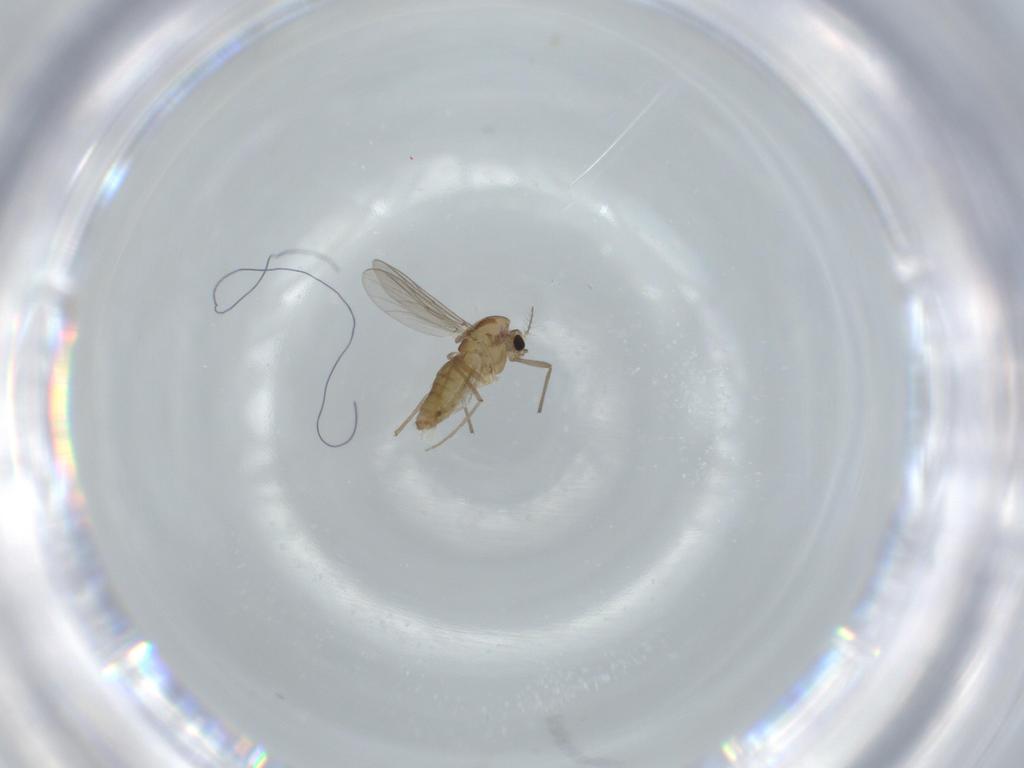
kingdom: Animalia
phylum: Arthropoda
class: Insecta
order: Diptera
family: Chironomidae
